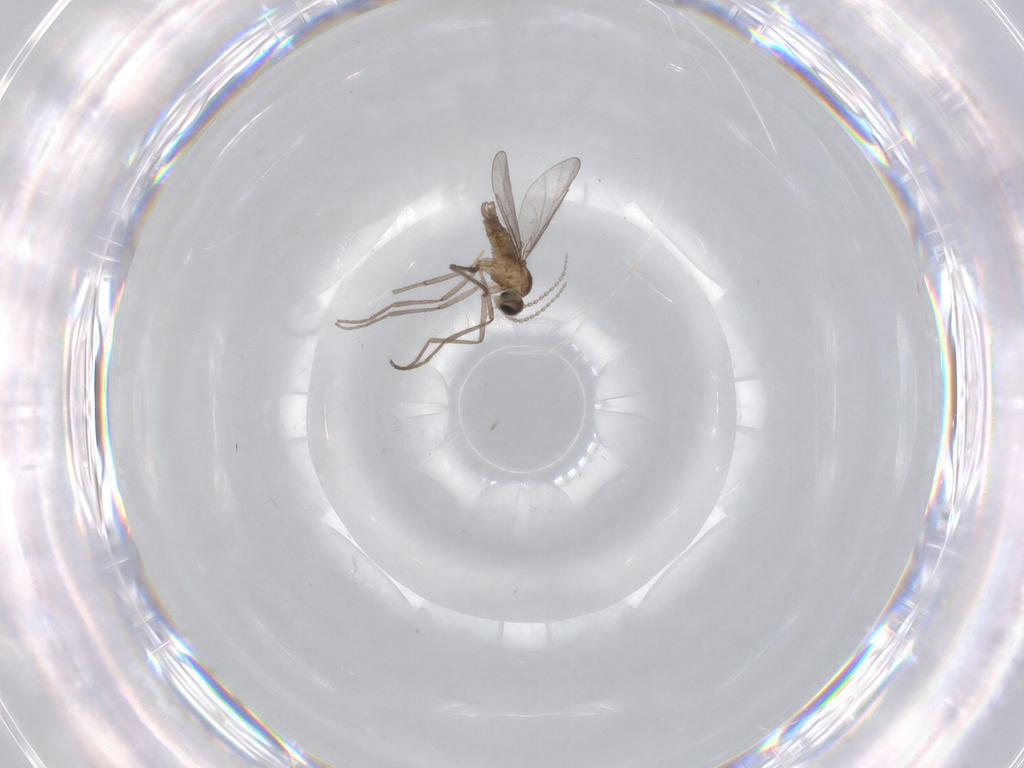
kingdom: Animalia
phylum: Arthropoda
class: Insecta
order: Diptera
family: Cecidomyiidae
